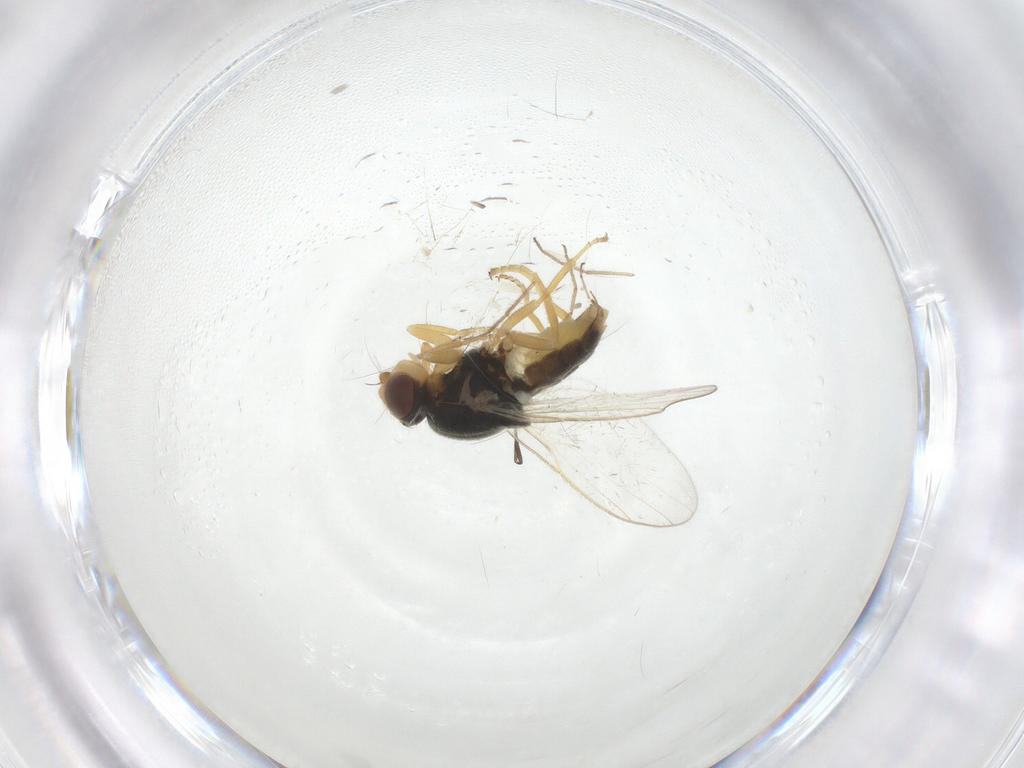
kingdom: Animalia
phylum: Arthropoda
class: Insecta
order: Diptera
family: Chloropidae
